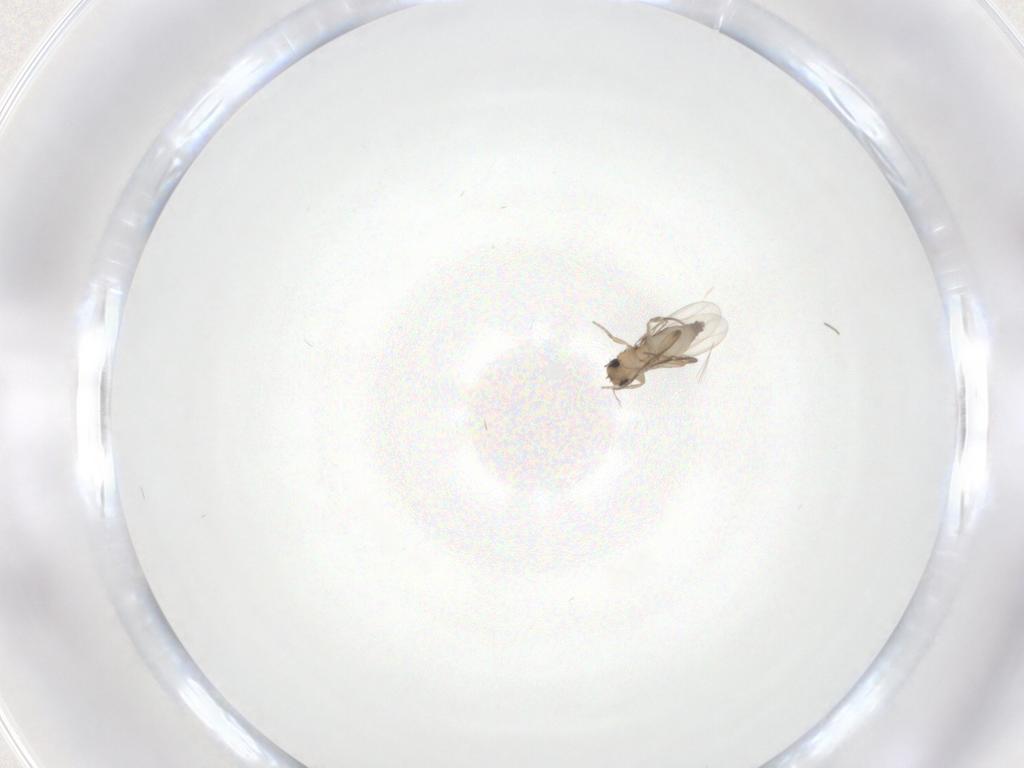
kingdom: Animalia
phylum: Arthropoda
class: Insecta
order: Diptera
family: Phoridae
